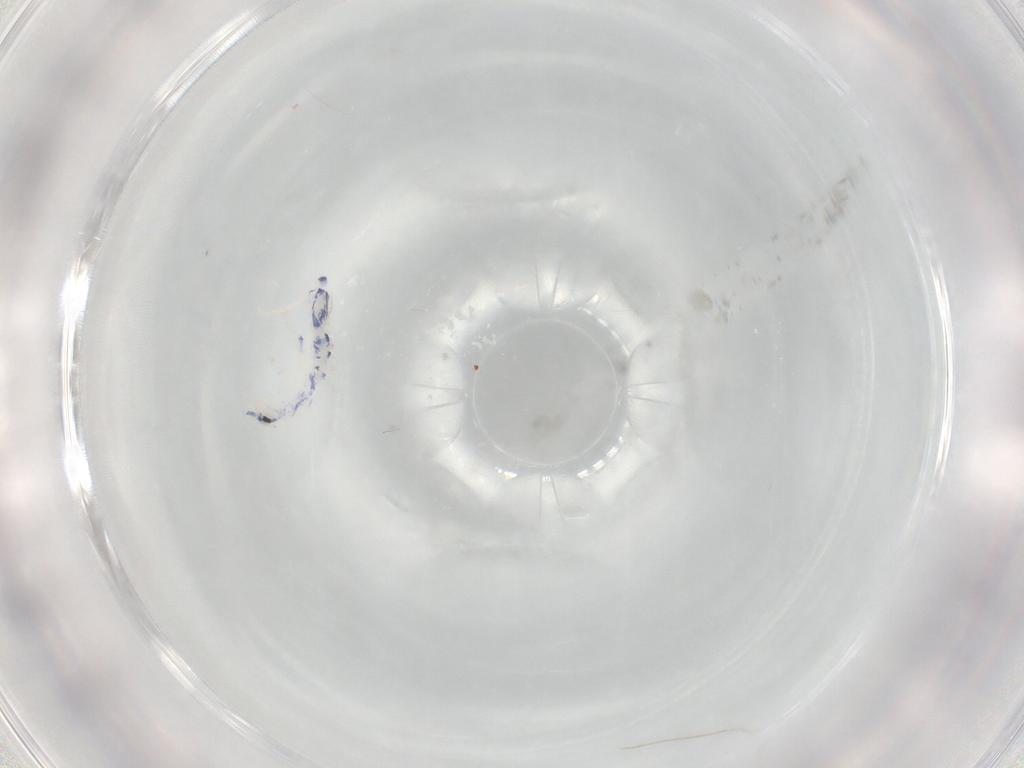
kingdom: Animalia
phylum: Arthropoda
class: Collembola
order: Entomobryomorpha
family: Entomobryidae
